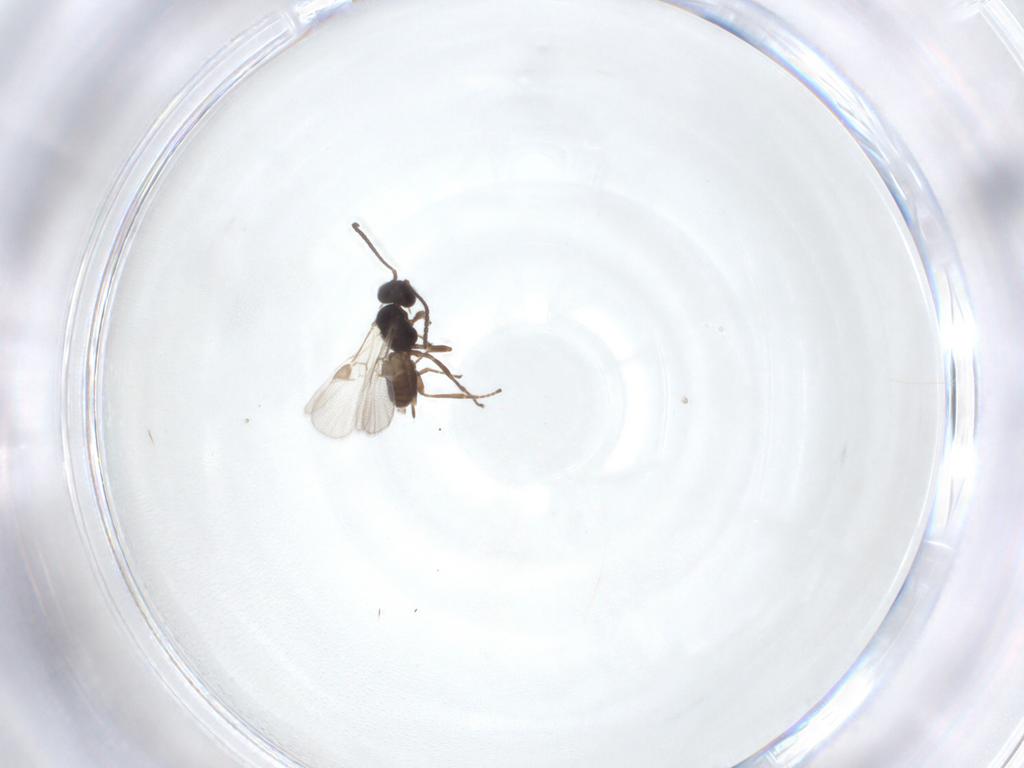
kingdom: Animalia
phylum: Arthropoda
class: Insecta
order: Hymenoptera
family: Braconidae
